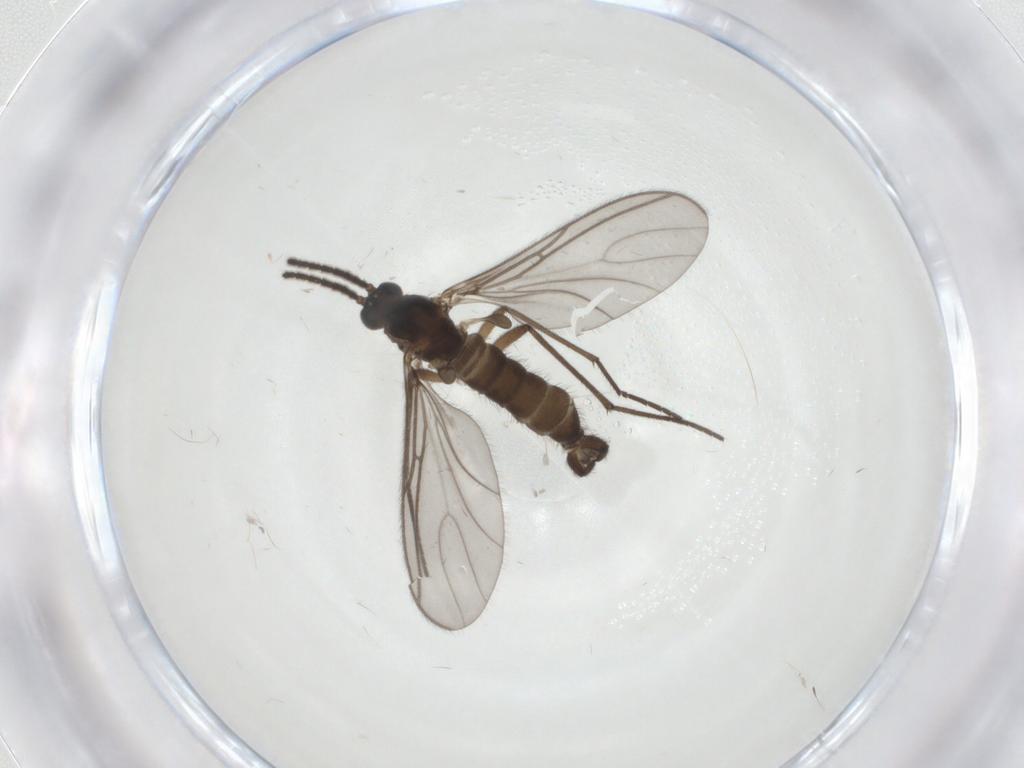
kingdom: Animalia
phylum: Arthropoda
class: Insecta
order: Diptera
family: Sciaridae
